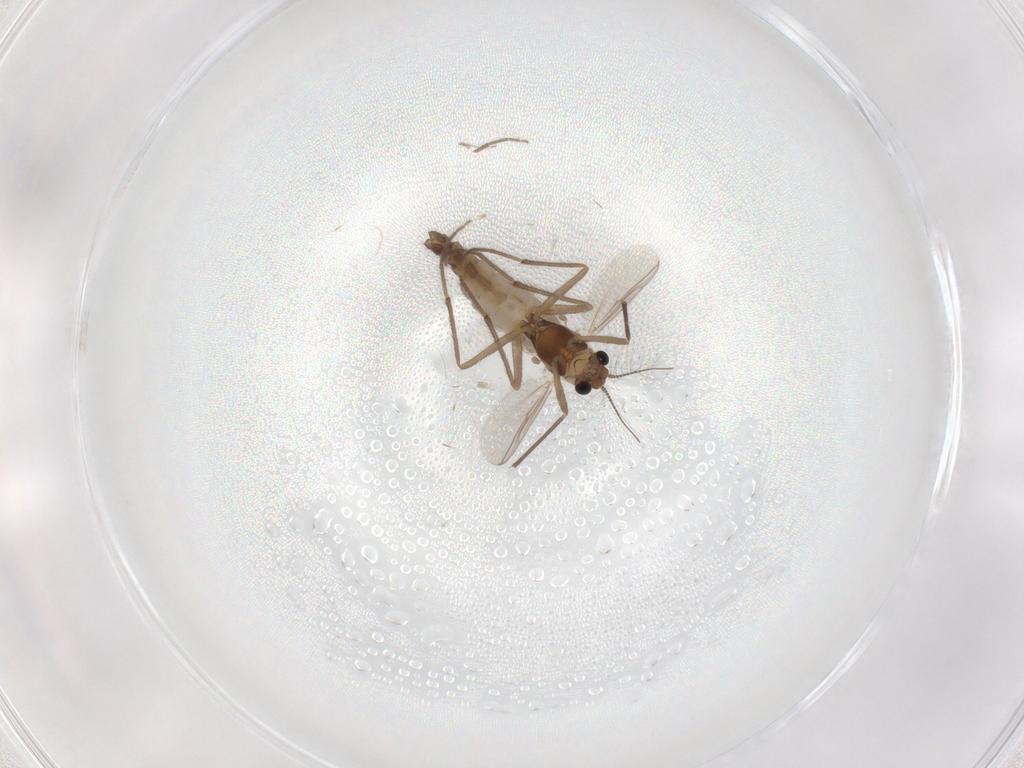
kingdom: Animalia
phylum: Arthropoda
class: Insecta
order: Diptera
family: Chironomidae
